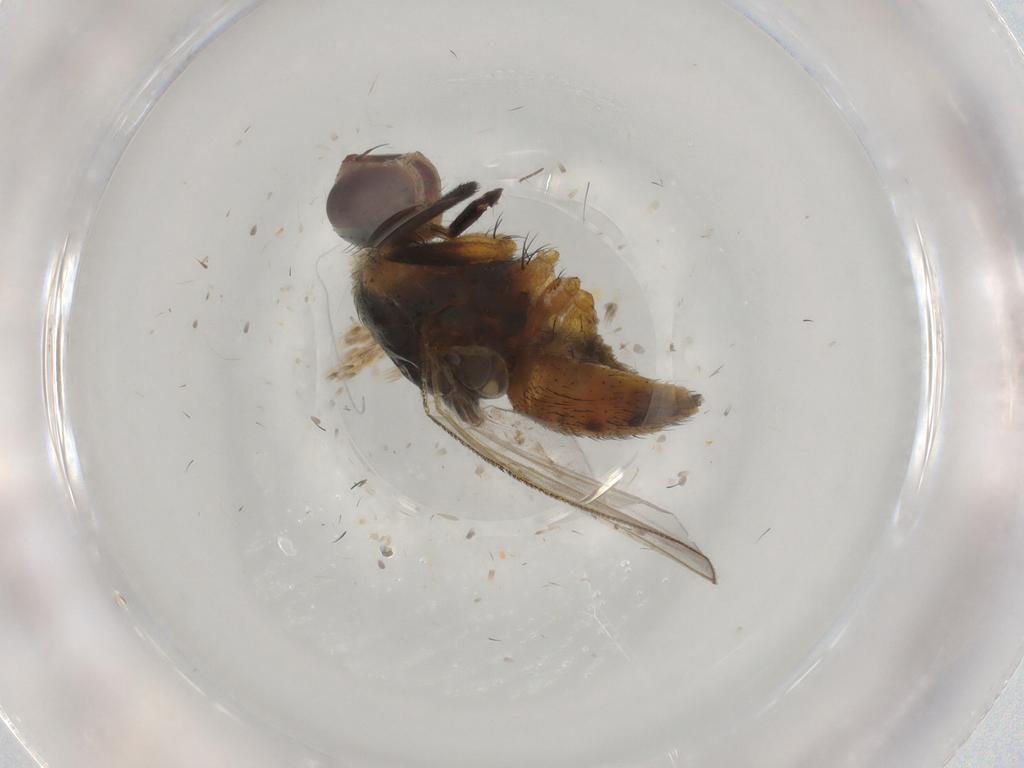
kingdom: Animalia
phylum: Arthropoda
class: Insecta
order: Diptera
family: Muscidae
